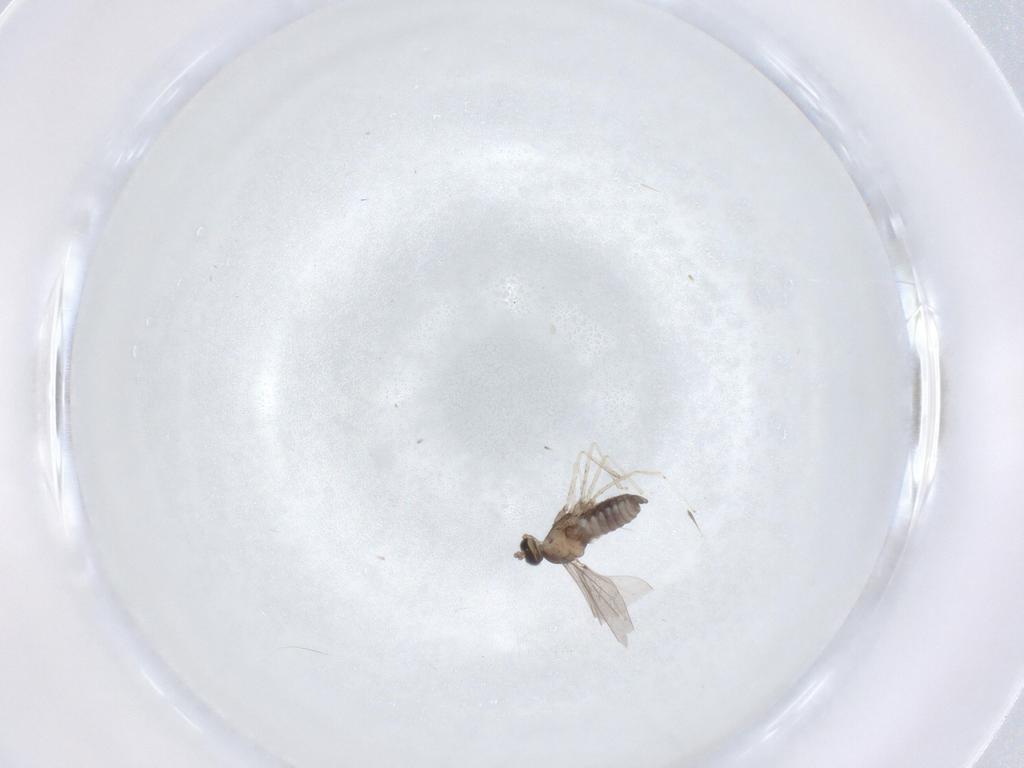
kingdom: Animalia
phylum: Arthropoda
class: Insecta
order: Diptera
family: Cecidomyiidae
